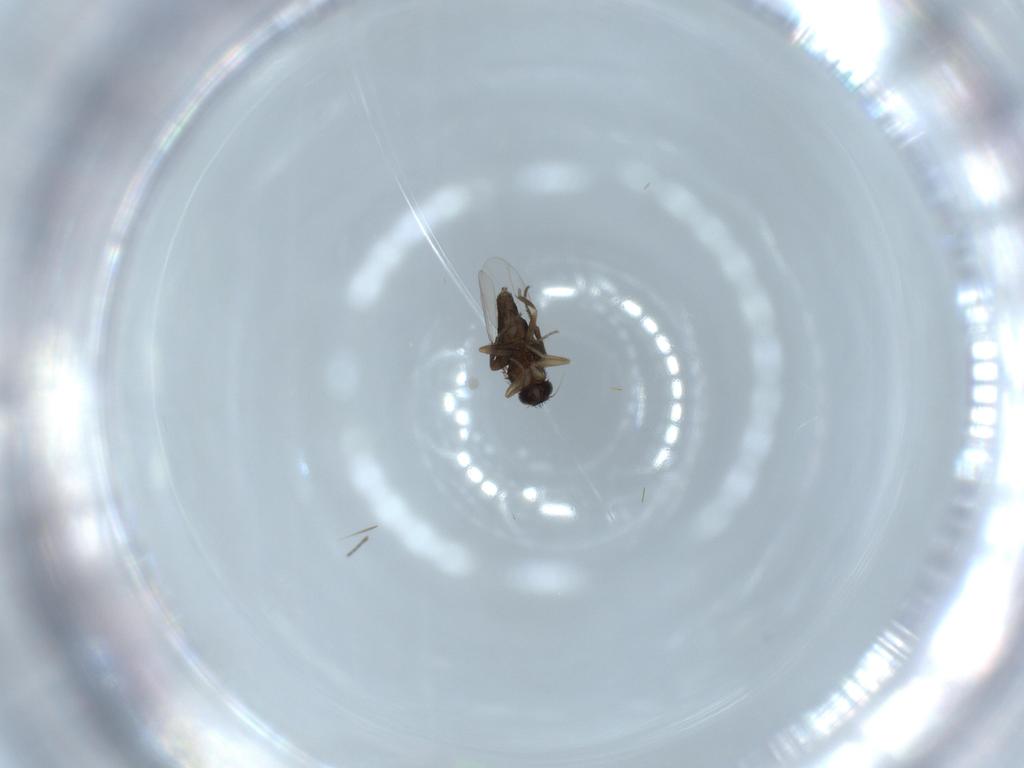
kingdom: Animalia
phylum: Arthropoda
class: Insecta
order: Diptera
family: Phoridae
